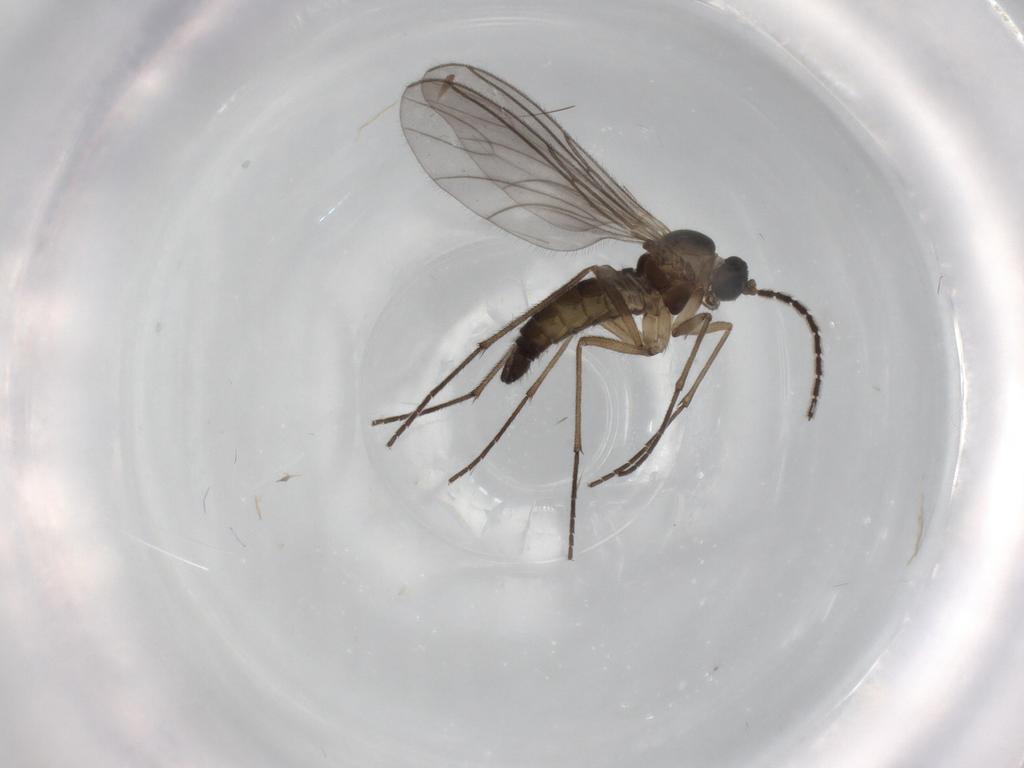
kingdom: Animalia
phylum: Arthropoda
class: Insecta
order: Diptera
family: Sciaridae
